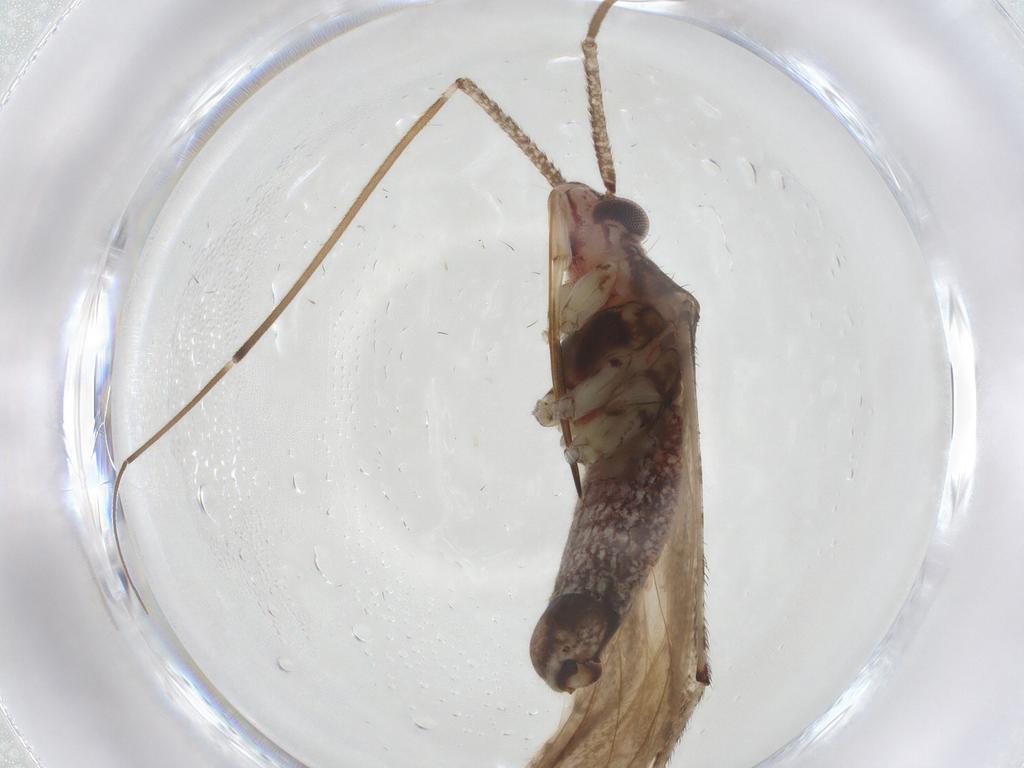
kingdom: Animalia
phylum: Arthropoda
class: Insecta
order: Hemiptera
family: Miridae
